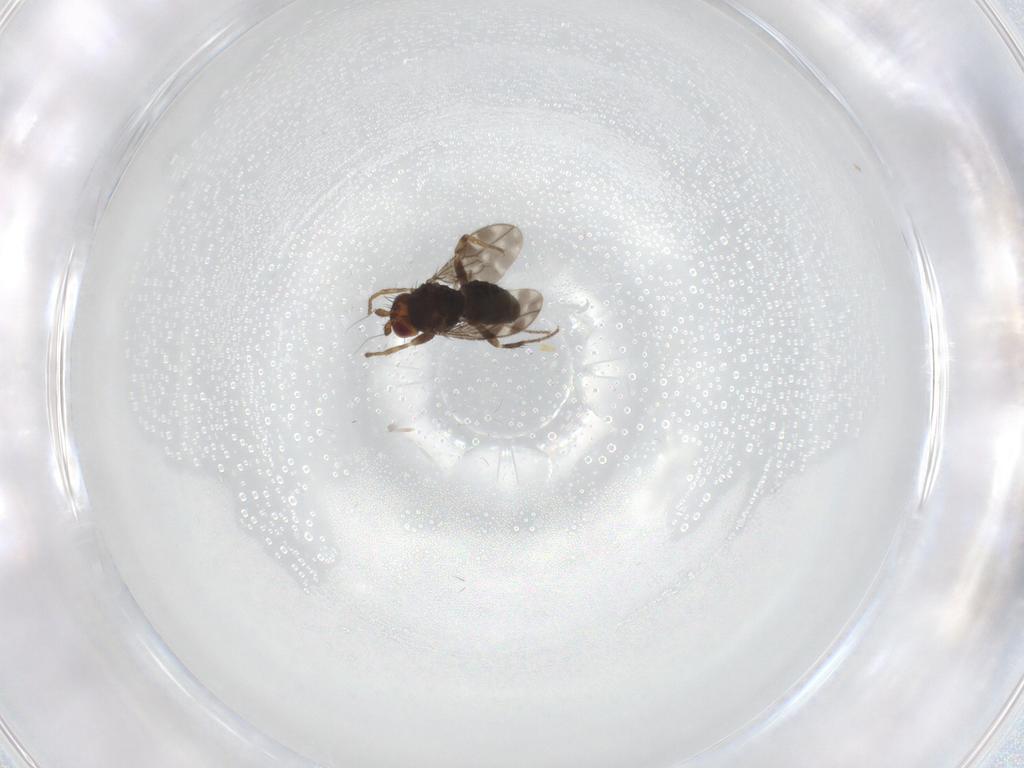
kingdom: Animalia
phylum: Arthropoda
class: Insecta
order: Diptera
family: Sphaeroceridae
